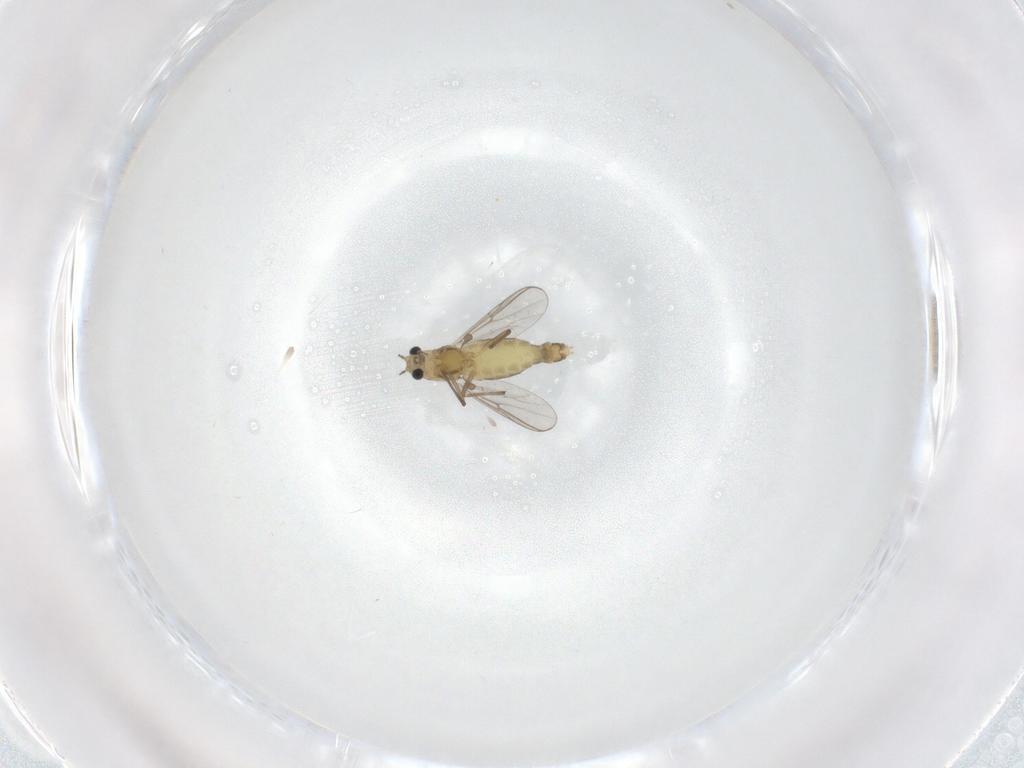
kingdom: Animalia
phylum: Arthropoda
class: Insecta
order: Diptera
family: Chironomidae
